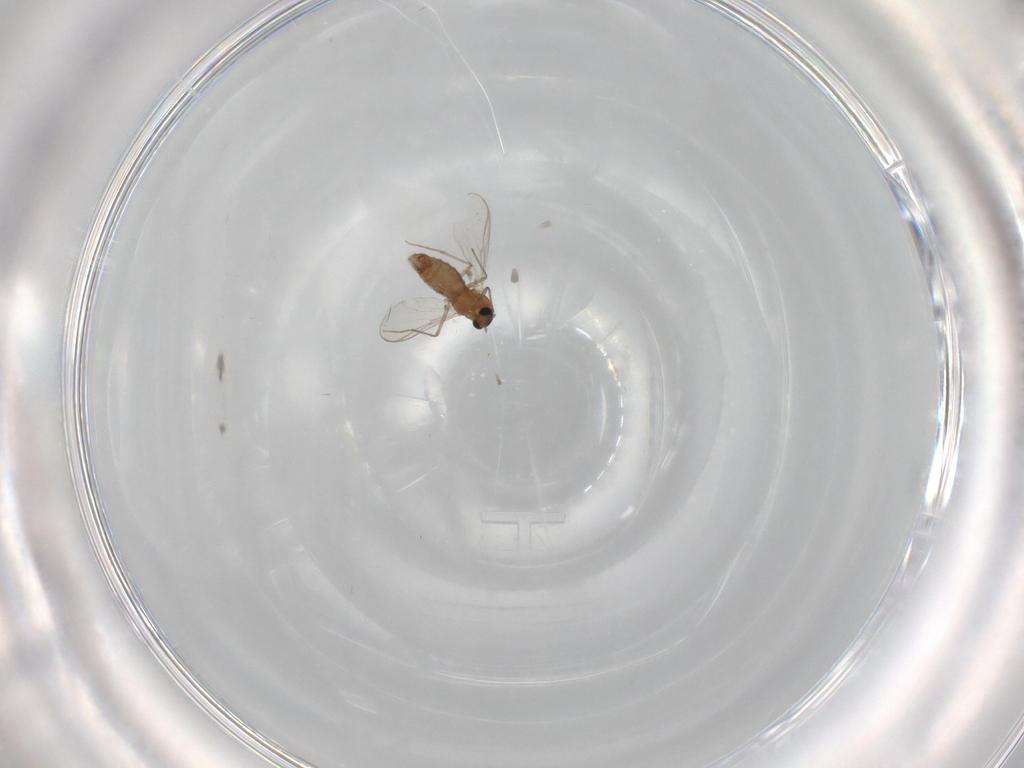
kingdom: Animalia
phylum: Arthropoda
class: Insecta
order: Diptera
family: Chironomidae
